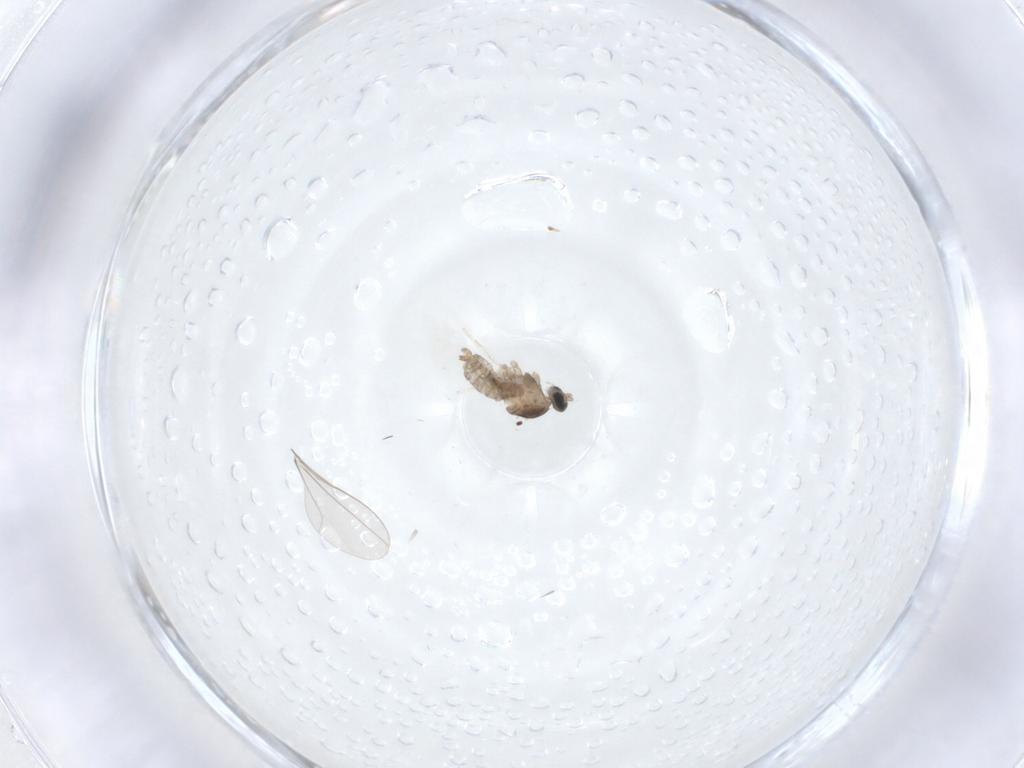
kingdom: Animalia
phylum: Arthropoda
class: Insecta
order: Diptera
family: Cecidomyiidae
